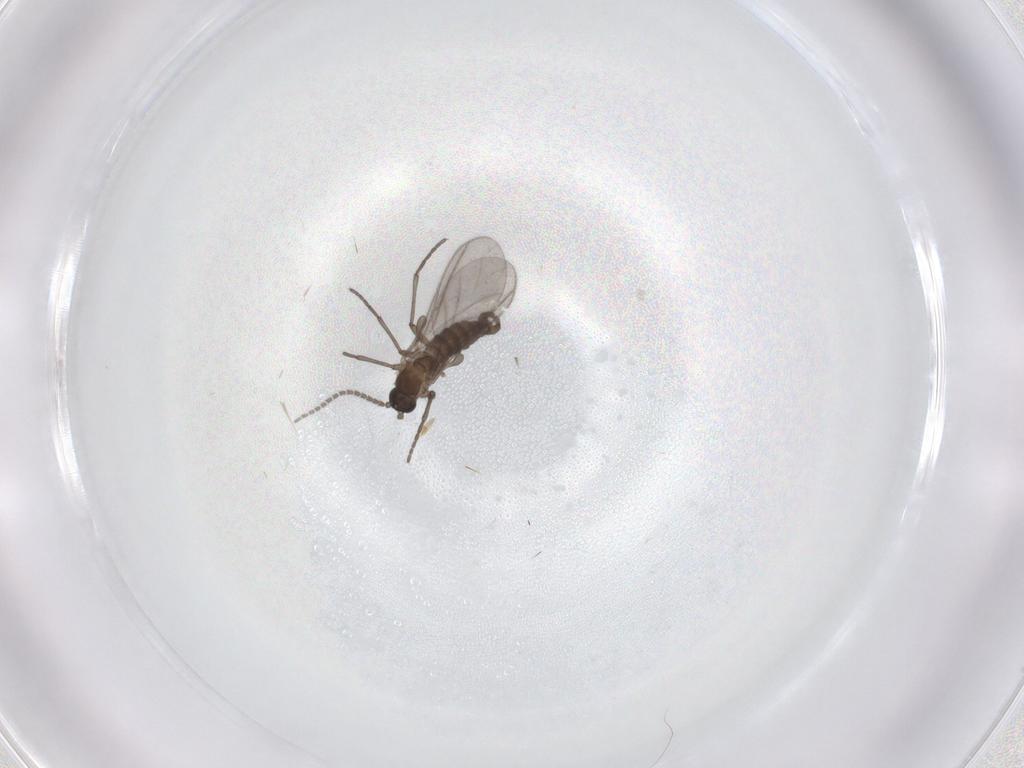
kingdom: Animalia
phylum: Arthropoda
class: Insecta
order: Diptera
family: Sciaridae
